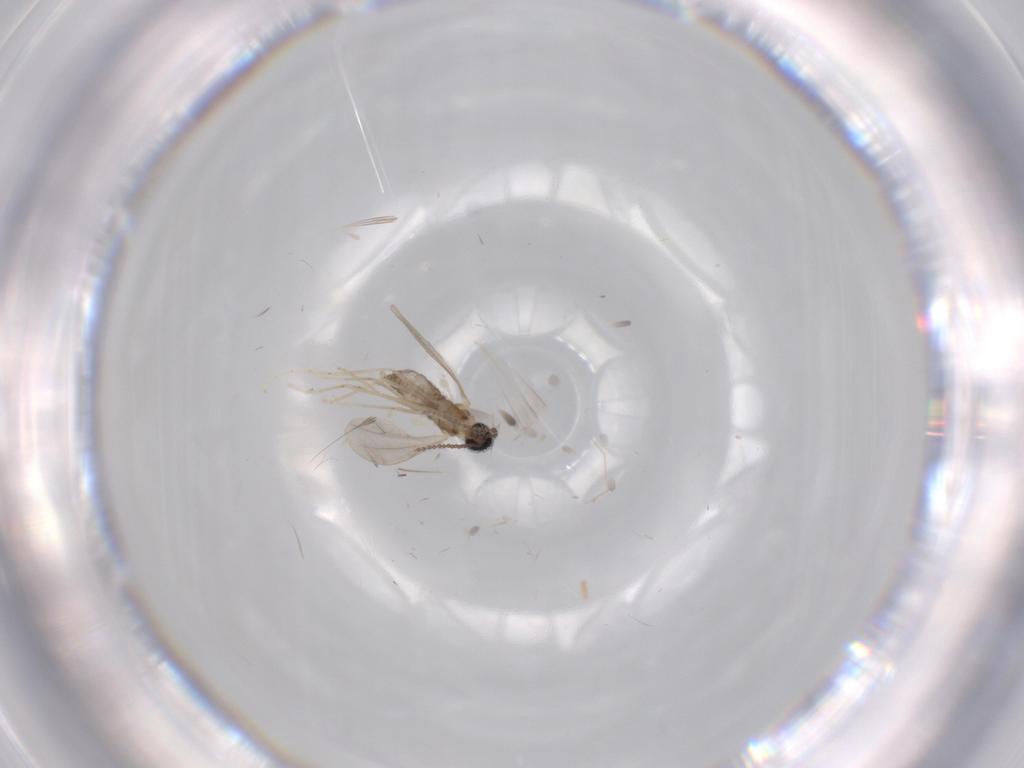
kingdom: Animalia
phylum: Arthropoda
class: Insecta
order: Diptera
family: Cecidomyiidae
